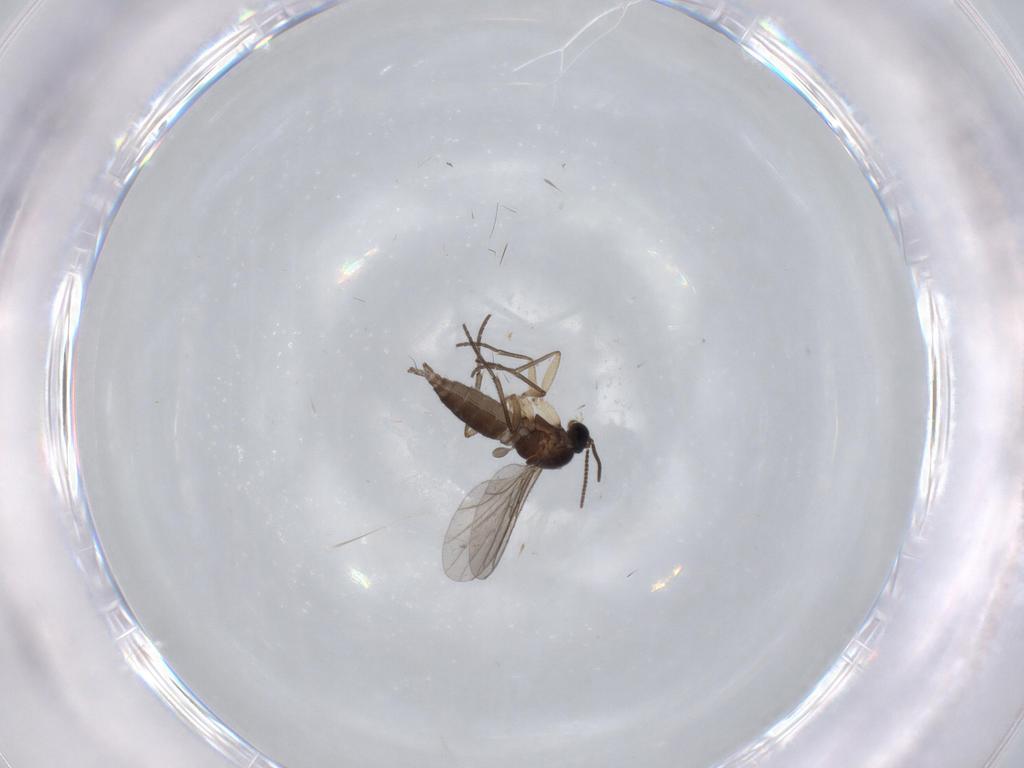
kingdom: Animalia
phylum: Arthropoda
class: Insecta
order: Diptera
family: Sciaridae
